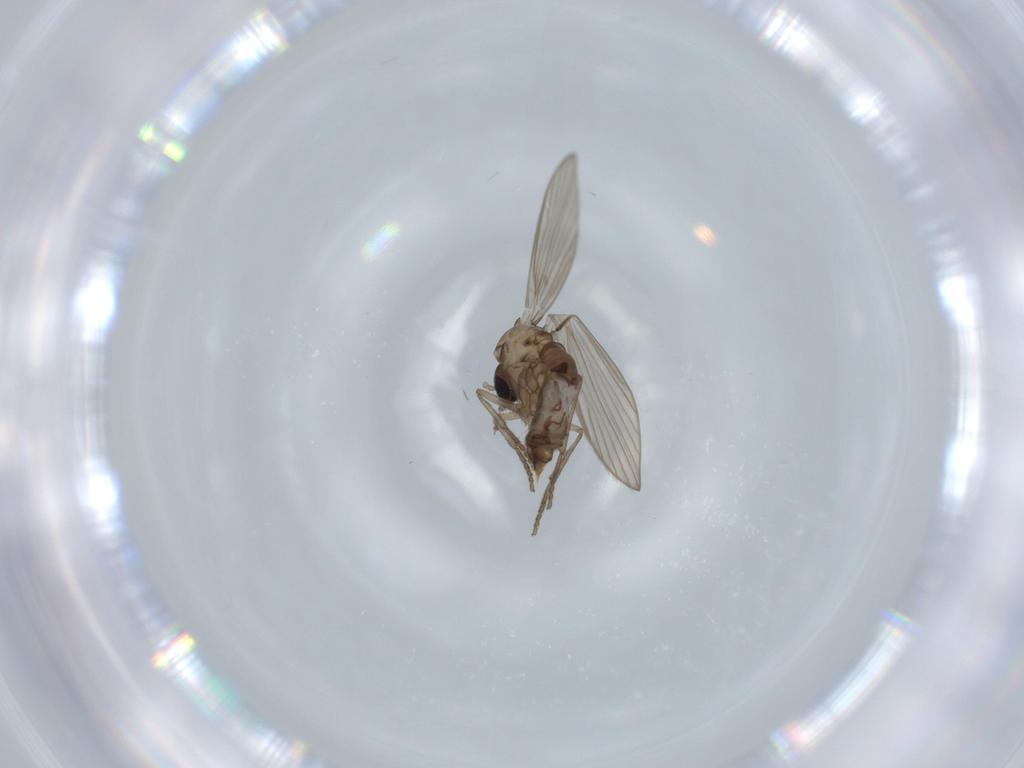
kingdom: Animalia
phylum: Arthropoda
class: Insecta
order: Diptera
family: Psychodidae
